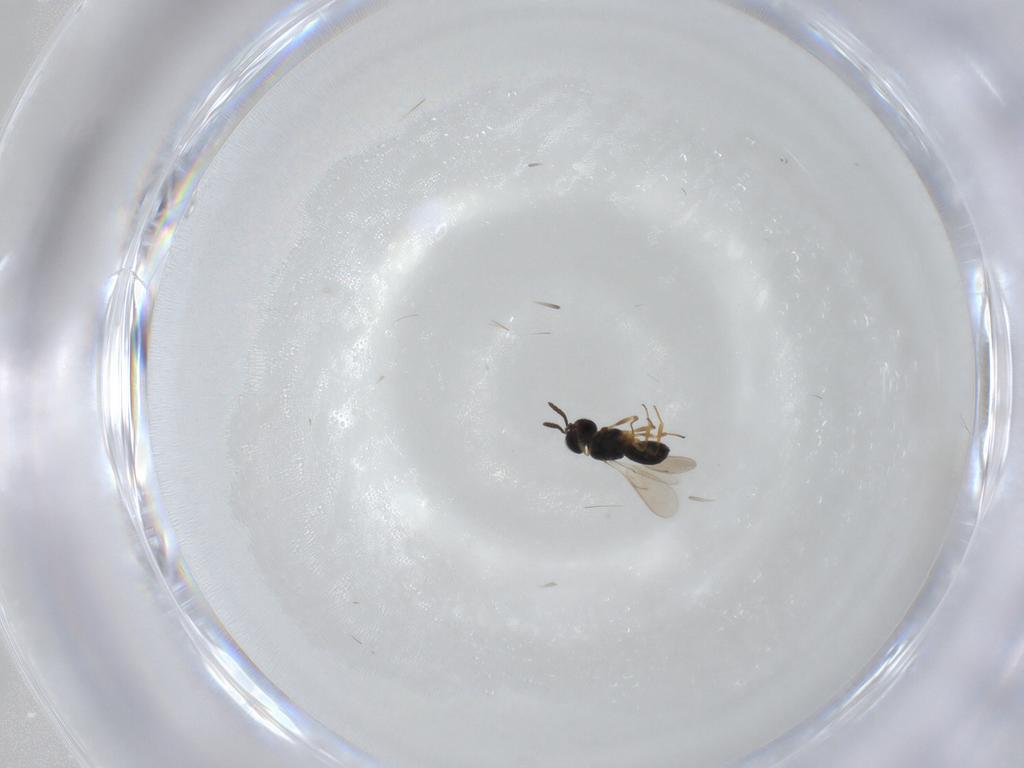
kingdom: Animalia
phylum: Arthropoda
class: Insecta
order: Hymenoptera
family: Scelionidae
